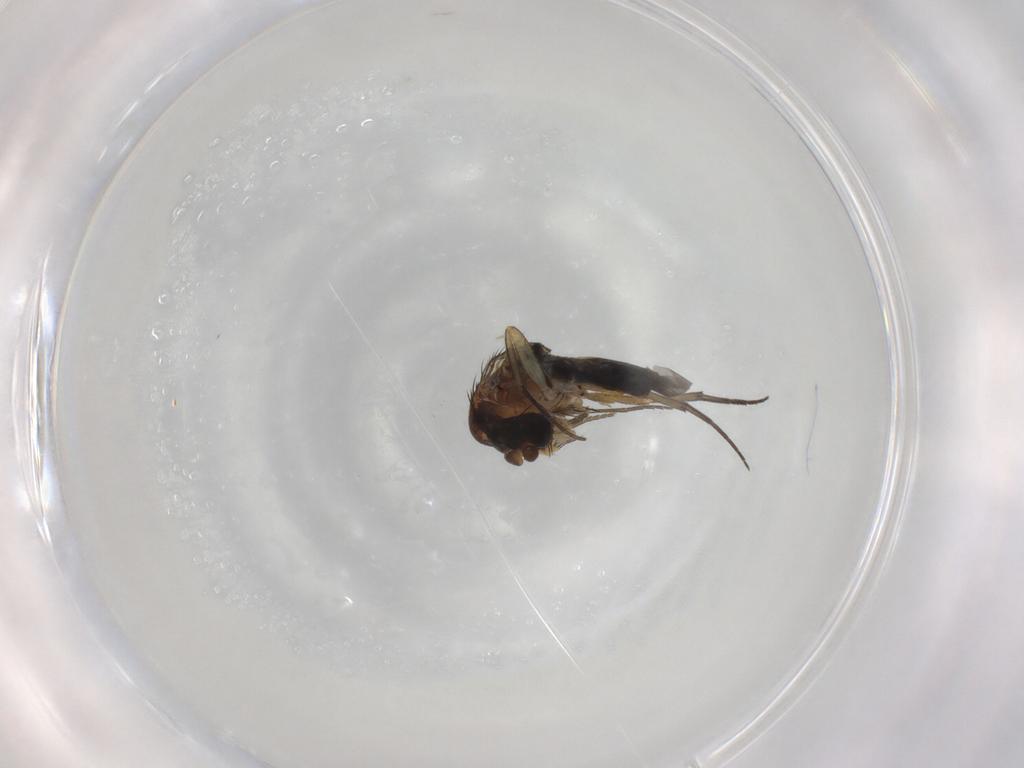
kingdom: Animalia
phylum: Arthropoda
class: Insecta
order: Diptera
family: Phoridae
